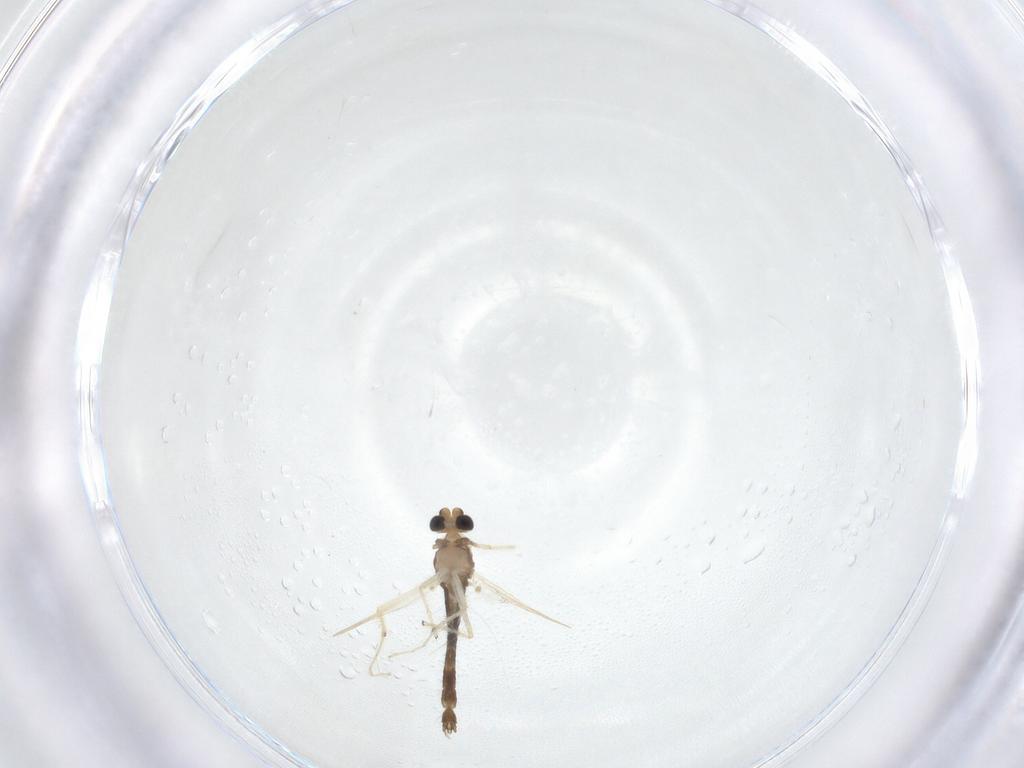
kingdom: Animalia
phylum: Arthropoda
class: Insecta
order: Diptera
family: Chironomidae
